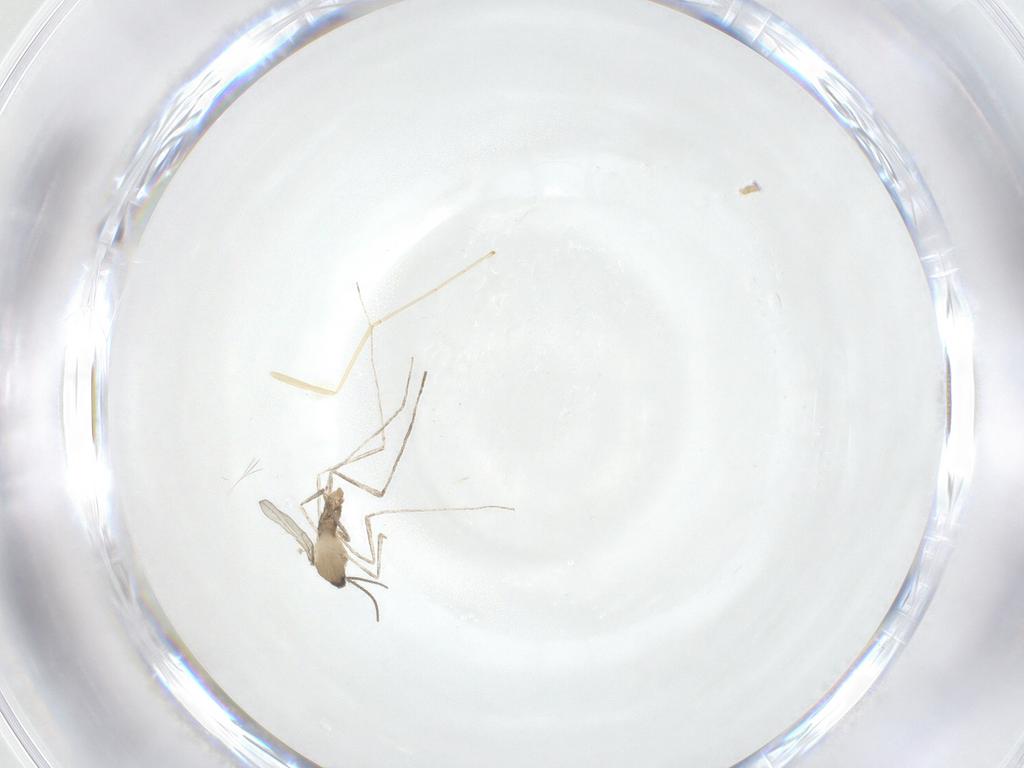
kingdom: Animalia
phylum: Arthropoda
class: Insecta
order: Diptera
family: Cecidomyiidae
